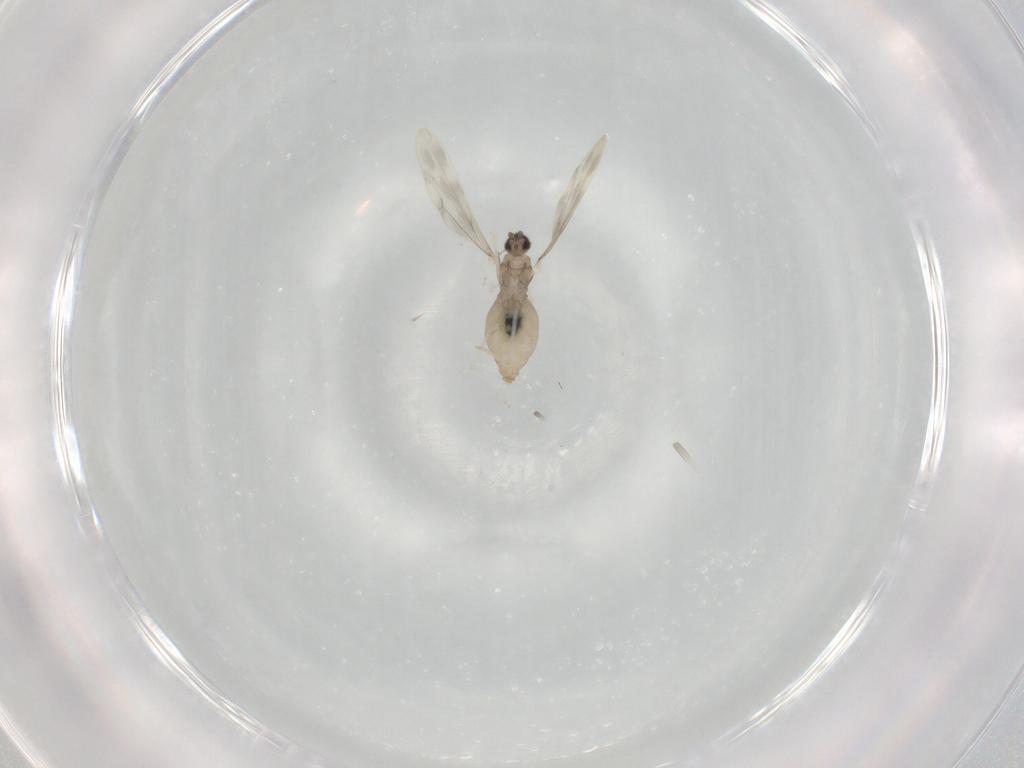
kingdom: Animalia
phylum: Arthropoda
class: Insecta
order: Diptera
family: Cecidomyiidae
